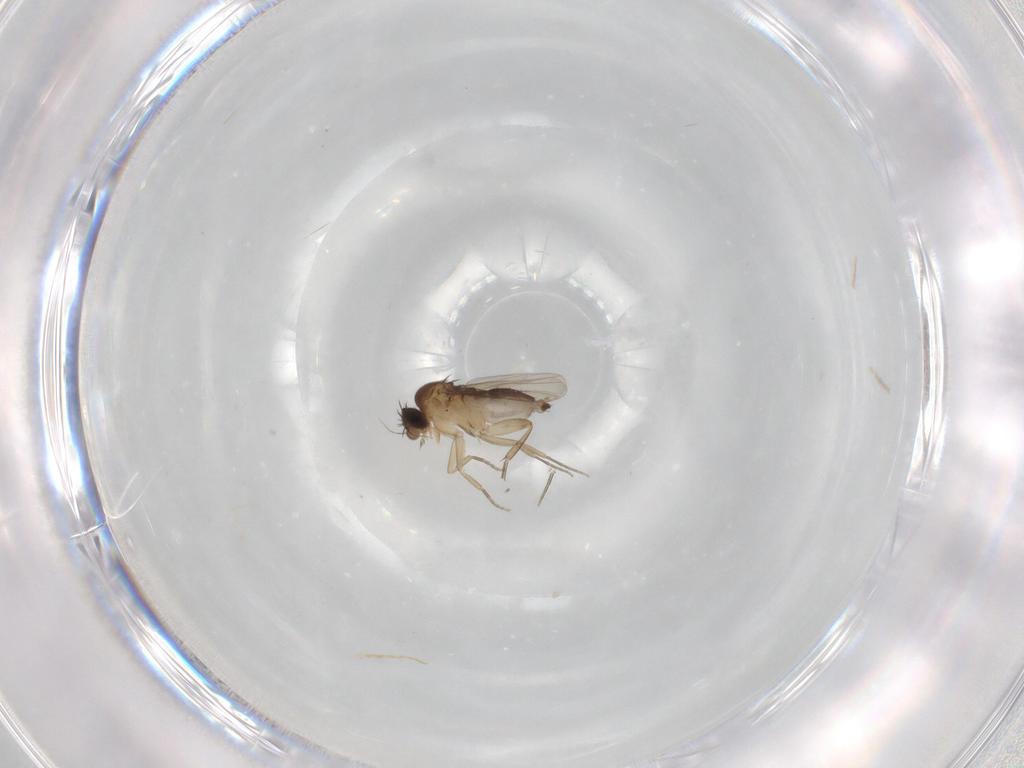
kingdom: Animalia
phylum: Arthropoda
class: Insecta
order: Diptera
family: Phoridae
